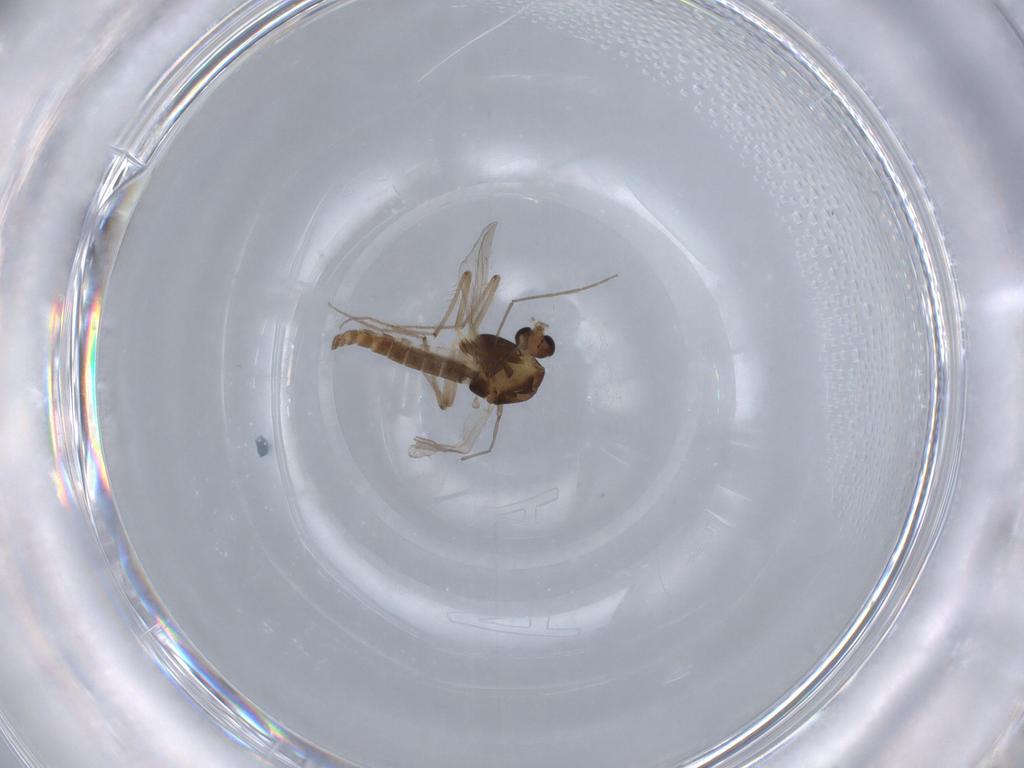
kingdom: Animalia
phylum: Arthropoda
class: Insecta
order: Diptera
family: Chironomidae
